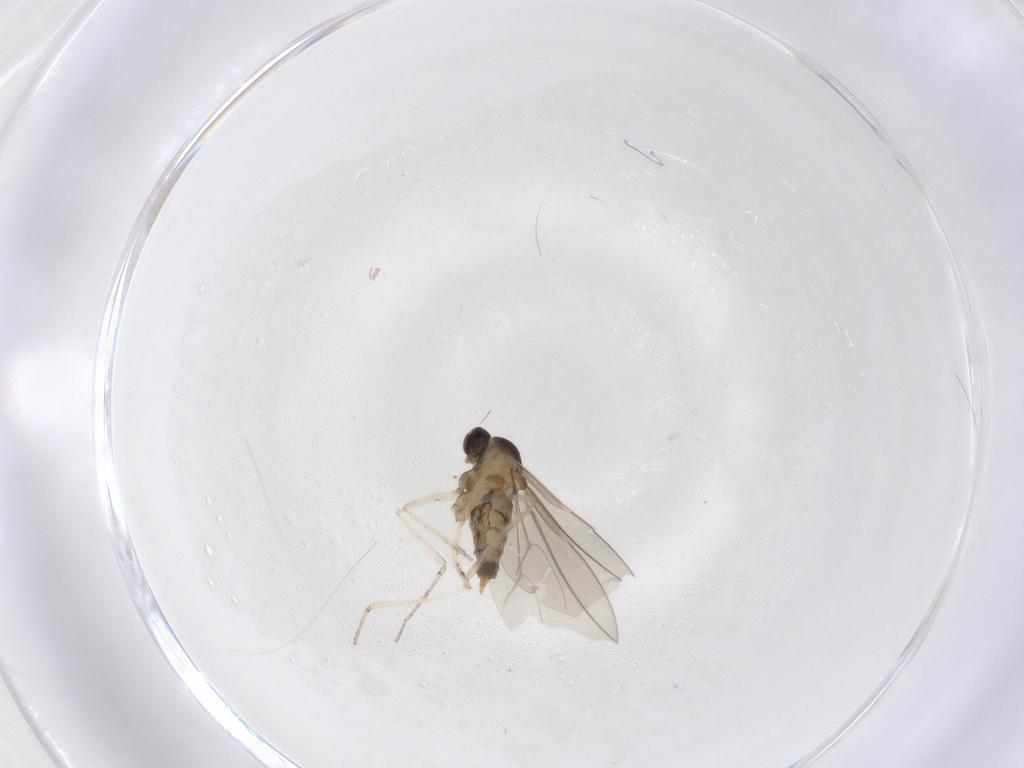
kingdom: Animalia
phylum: Arthropoda
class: Insecta
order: Diptera
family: Cecidomyiidae
